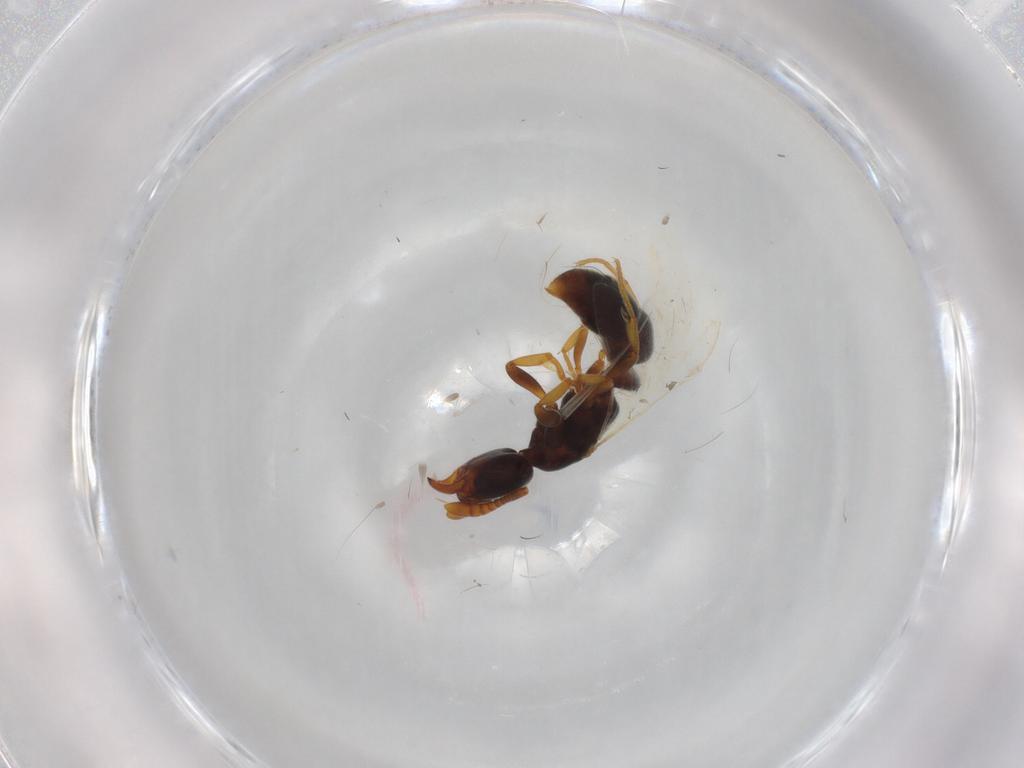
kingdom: Animalia
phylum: Arthropoda
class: Insecta
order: Hymenoptera
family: Formicidae
